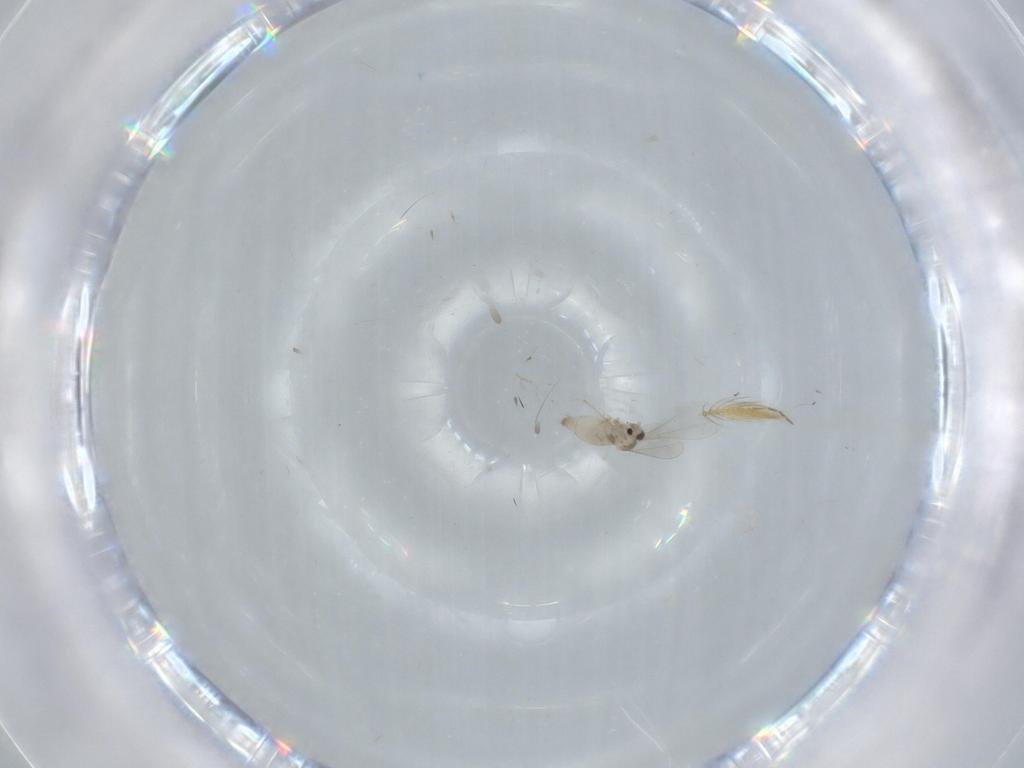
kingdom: Animalia
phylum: Arthropoda
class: Insecta
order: Diptera
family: Cecidomyiidae
